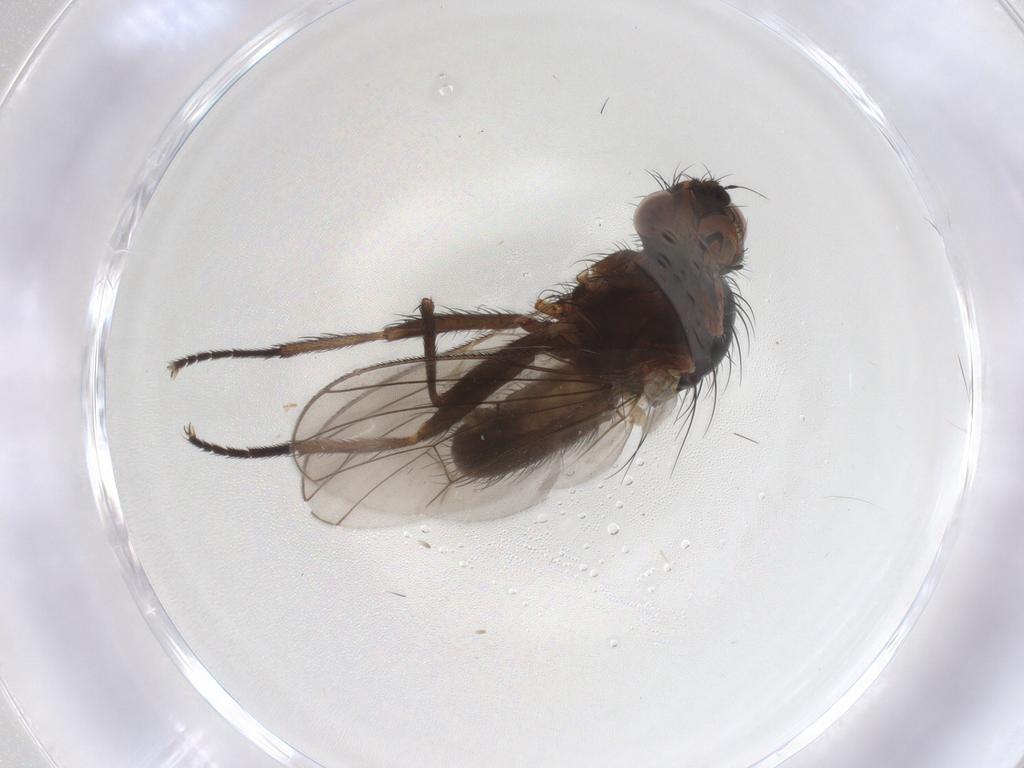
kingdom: Animalia
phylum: Arthropoda
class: Insecta
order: Diptera
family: Anthomyiidae
